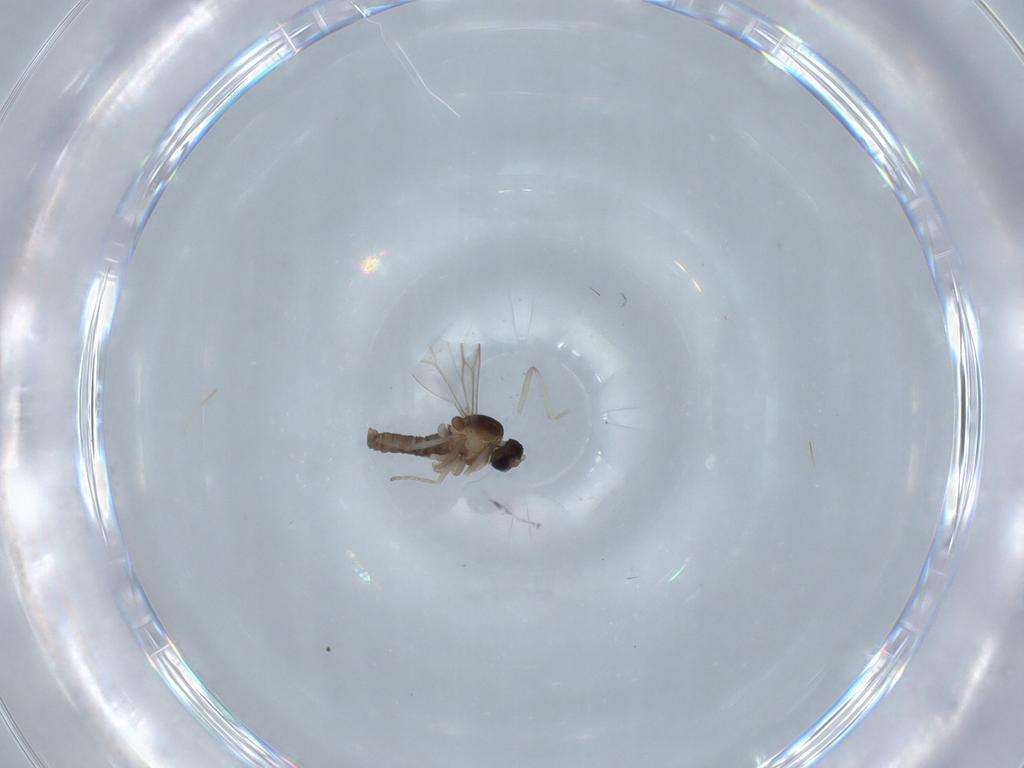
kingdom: Animalia
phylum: Arthropoda
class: Insecta
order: Diptera
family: Cecidomyiidae
